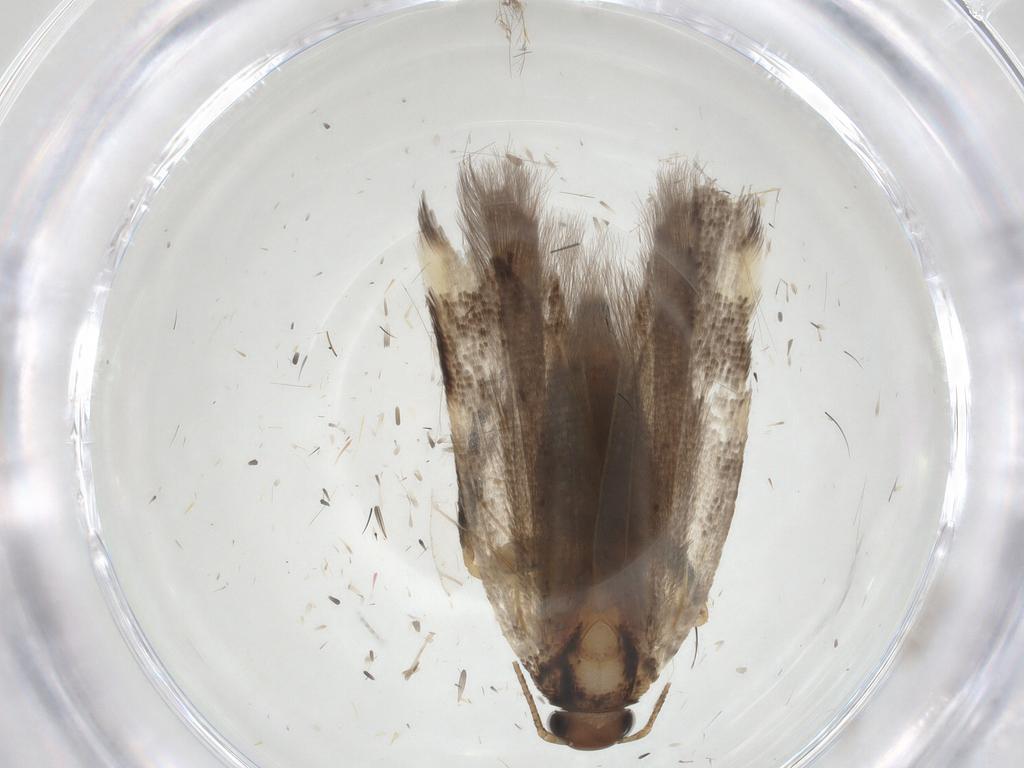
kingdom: Animalia
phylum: Arthropoda
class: Insecta
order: Lepidoptera
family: Gelechiidae
